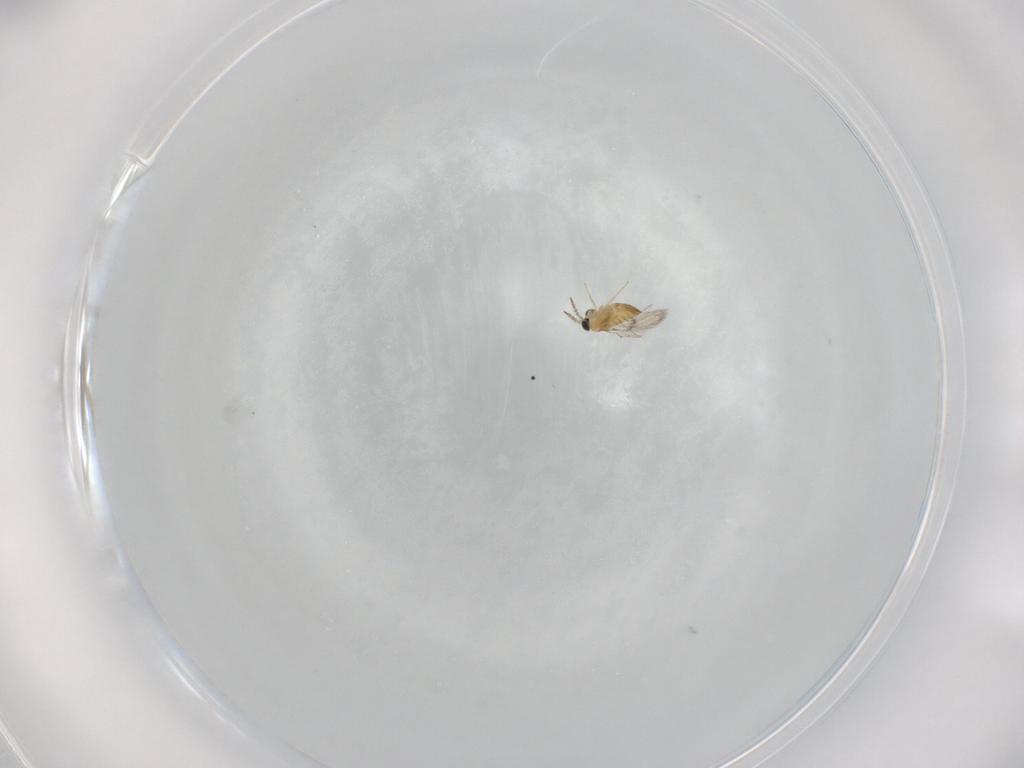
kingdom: Animalia
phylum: Arthropoda
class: Insecta
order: Hymenoptera
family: Trichogrammatidae
